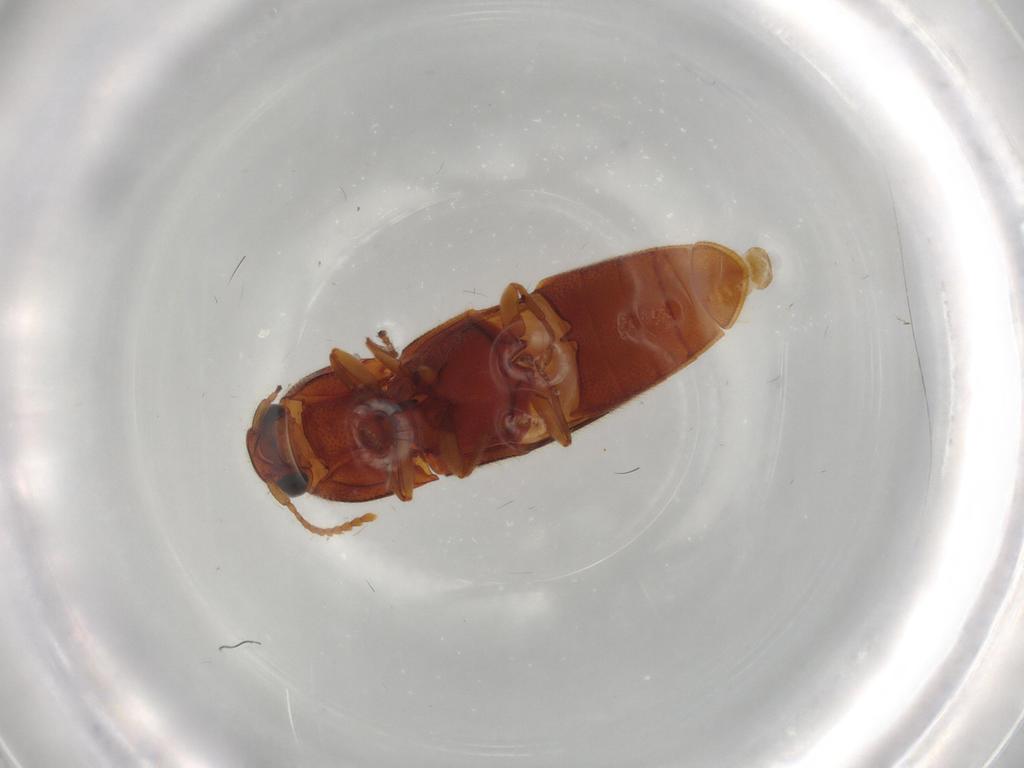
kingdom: Animalia
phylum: Arthropoda
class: Insecta
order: Coleoptera
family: Elateridae
